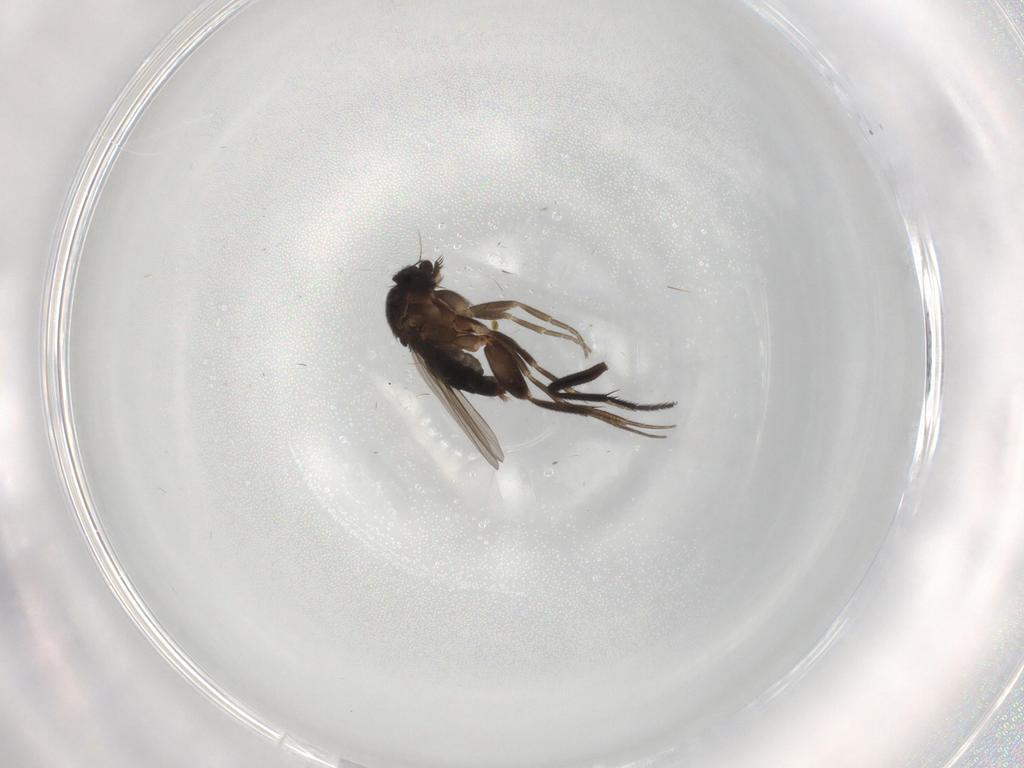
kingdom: Animalia
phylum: Arthropoda
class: Insecta
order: Diptera
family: Phoridae
